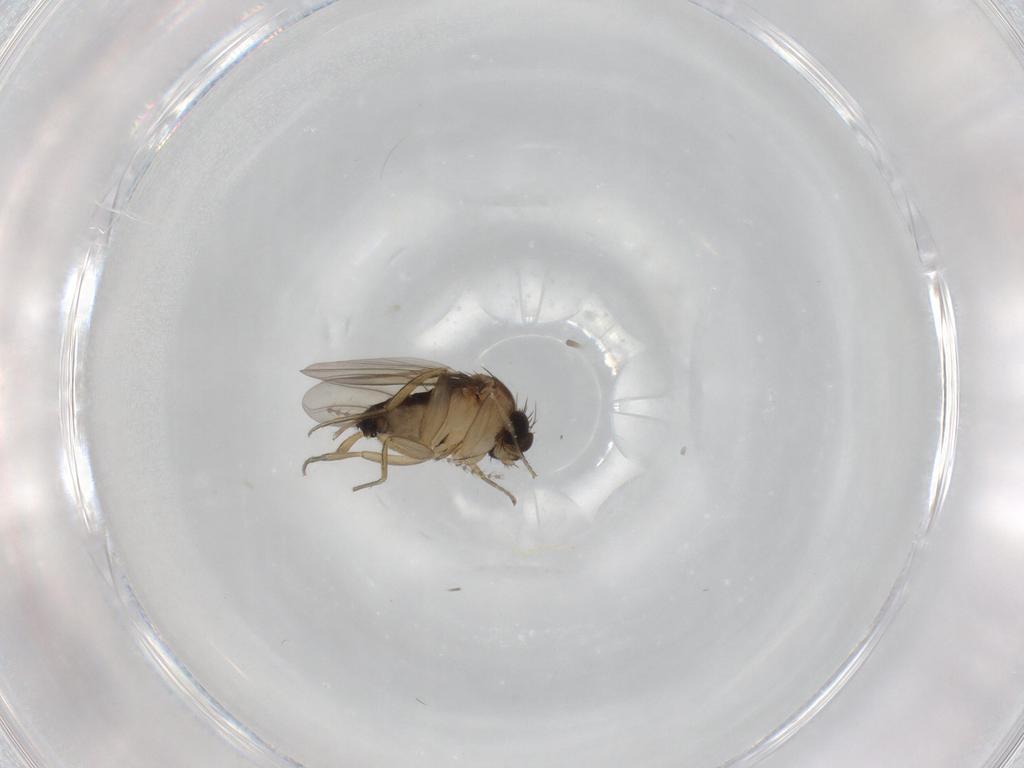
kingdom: Animalia
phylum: Arthropoda
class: Insecta
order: Diptera
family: Cecidomyiidae
